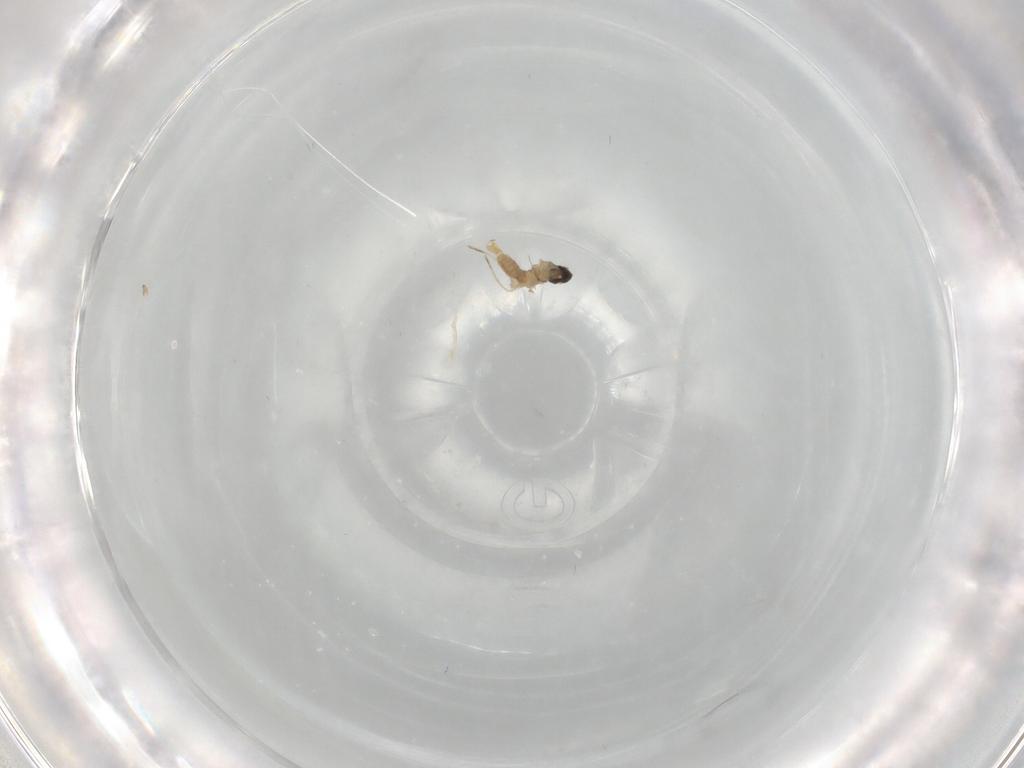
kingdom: Animalia
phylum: Arthropoda
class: Insecta
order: Diptera
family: Cecidomyiidae
